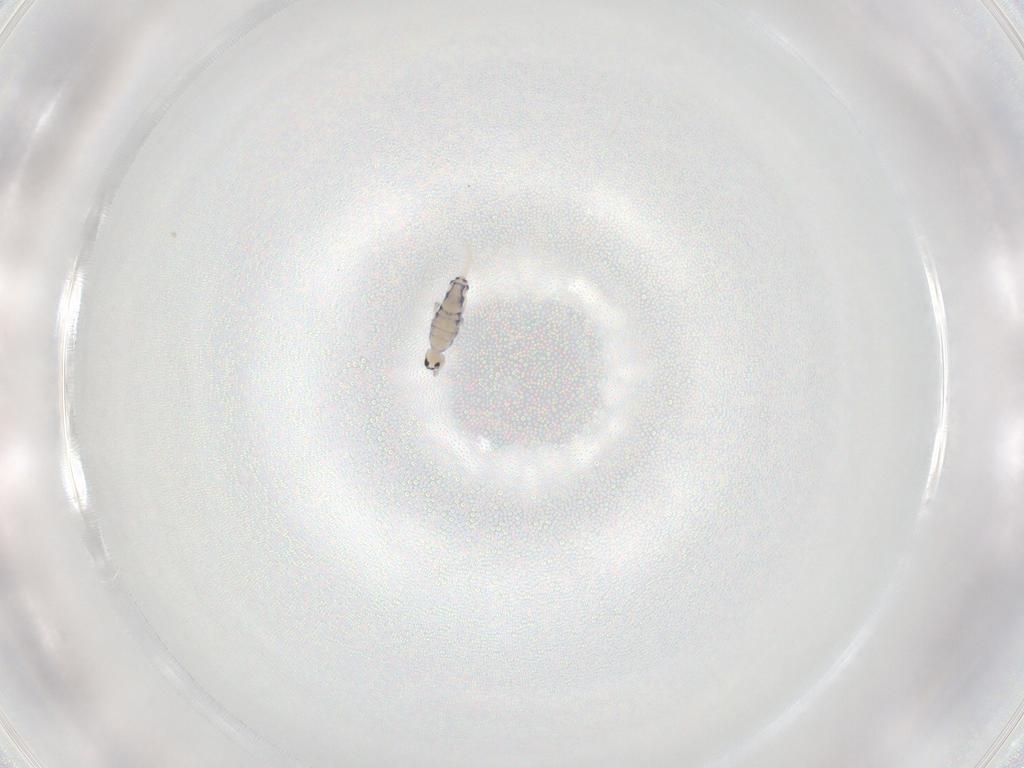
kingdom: Animalia
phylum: Arthropoda
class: Collembola
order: Entomobryomorpha
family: Entomobryidae
